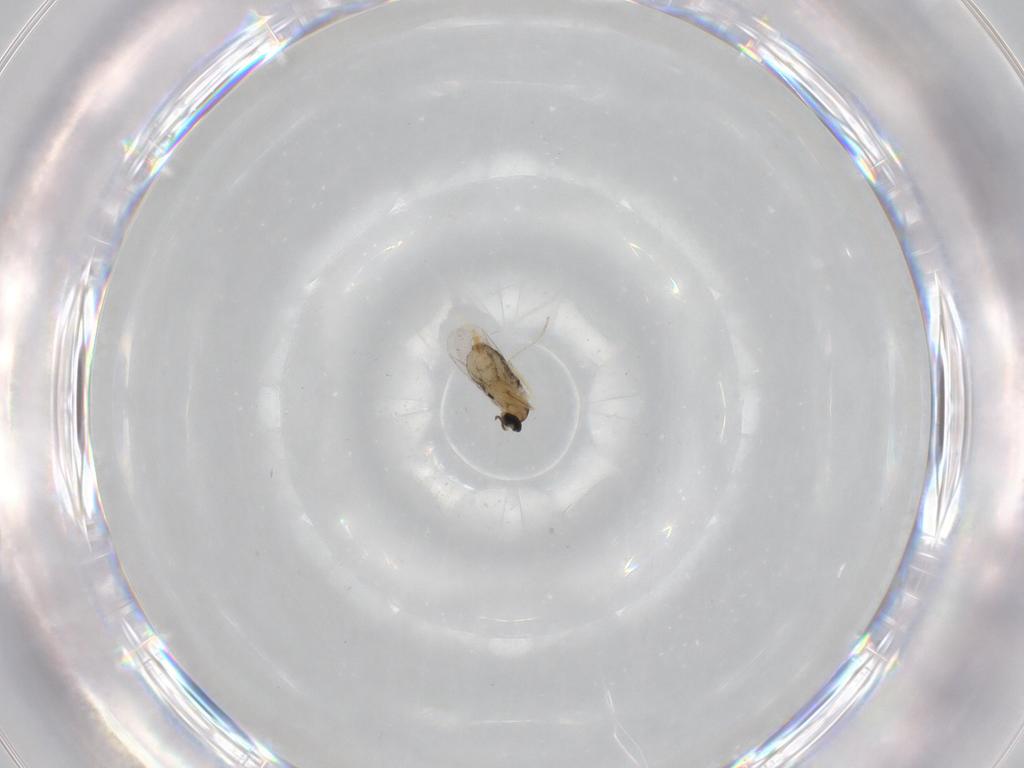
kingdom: Animalia
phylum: Arthropoda
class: Insecta
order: Diptera
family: Cecidomyiidae
